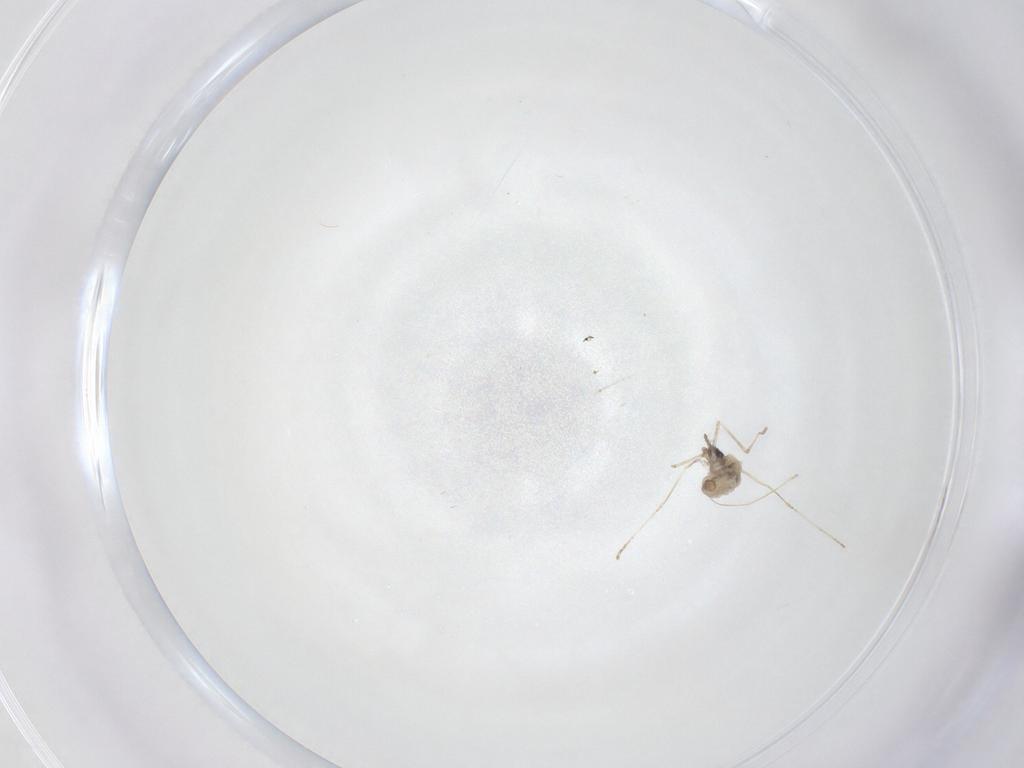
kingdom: Animalia
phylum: Arthropoda
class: Insecta
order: Diptera
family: Cecidomyiidae
